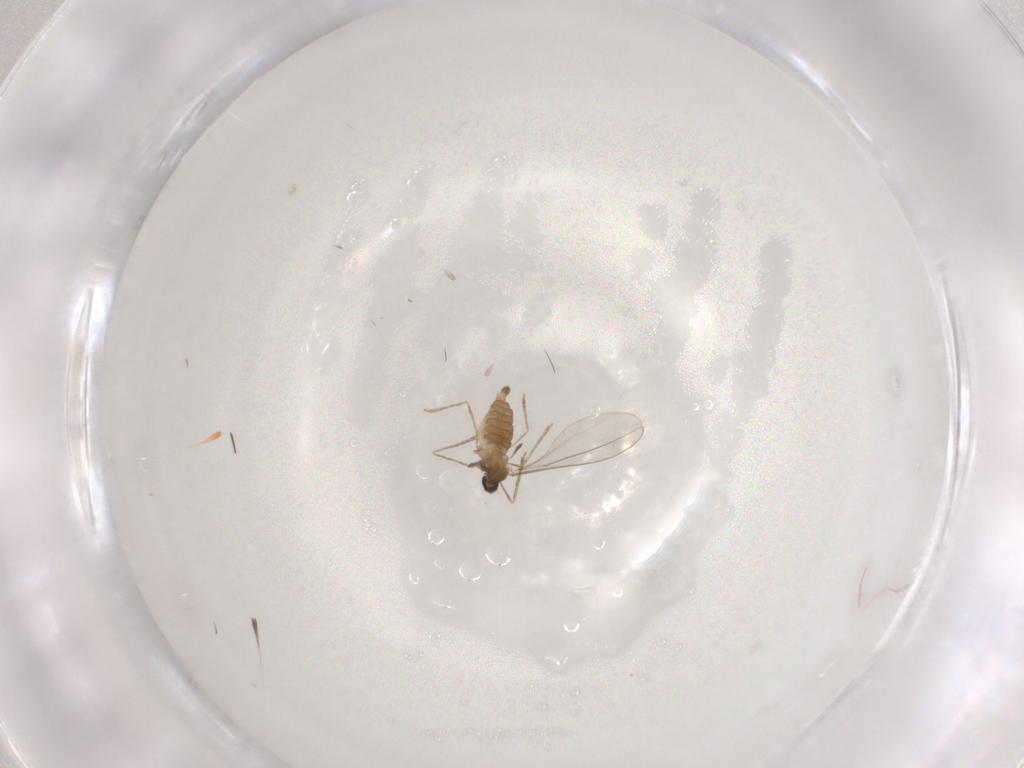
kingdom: Animalia
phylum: Arthropoda
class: Insecta
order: Diptera
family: Cecidomyiidae
